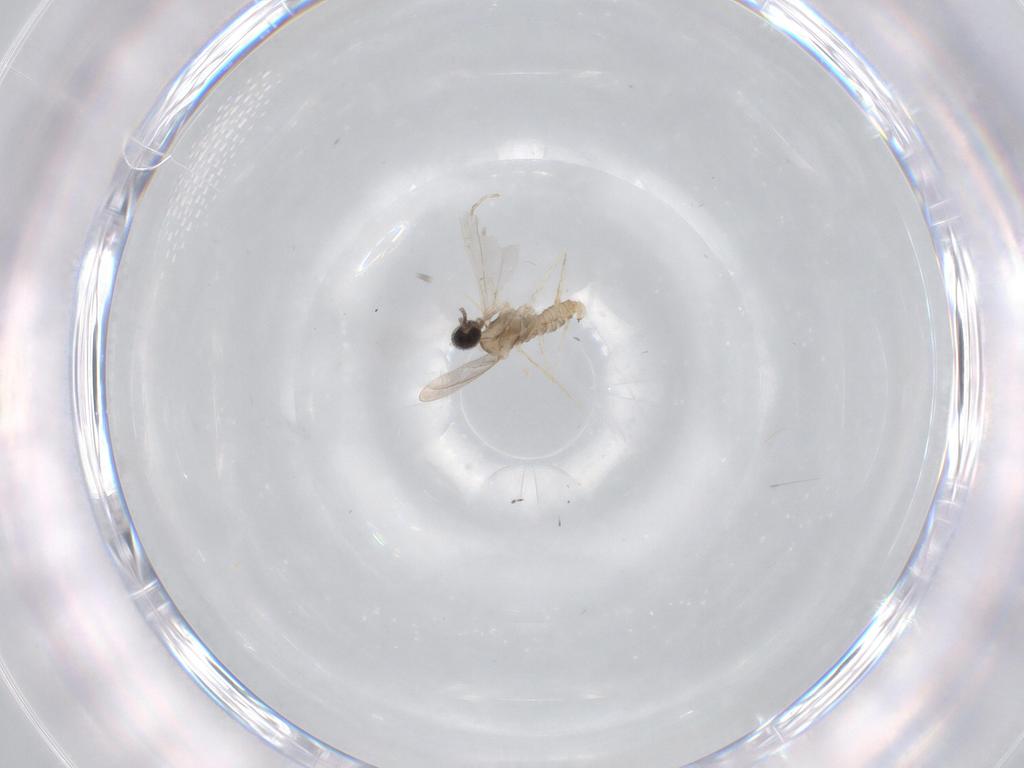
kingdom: Animalia
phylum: Arthropoda
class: Insecta
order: Diptera
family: Cecidomyiidae
